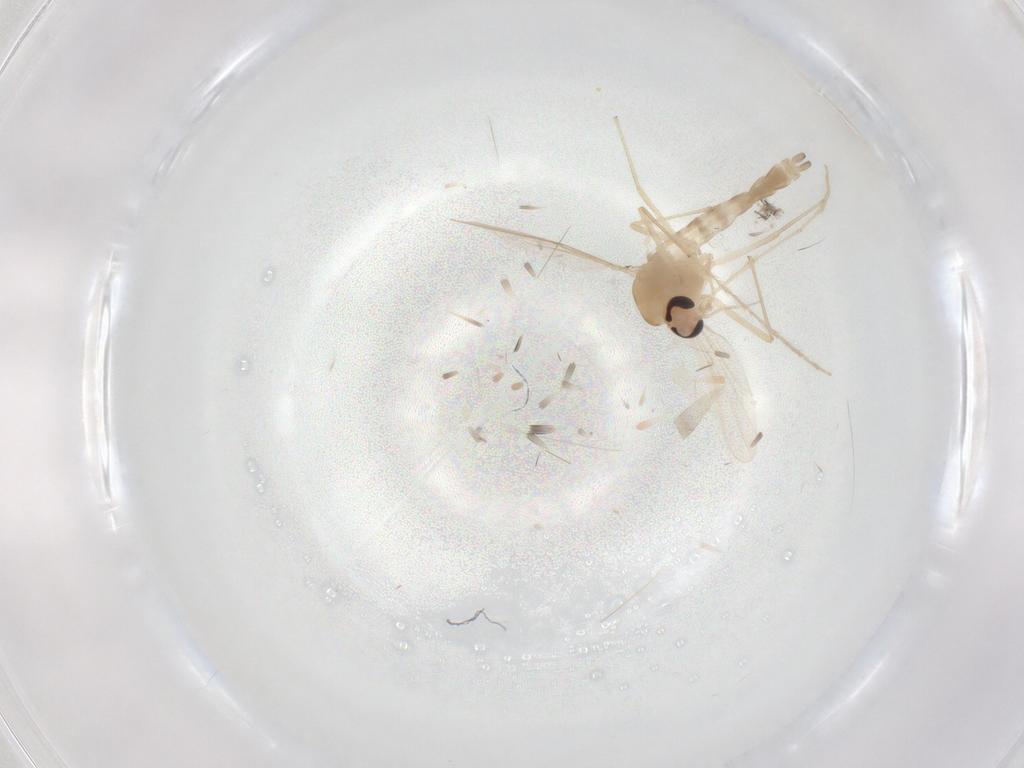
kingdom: Animalia
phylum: Arthropoda
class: Insecta
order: Diptera
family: Chironomidae
